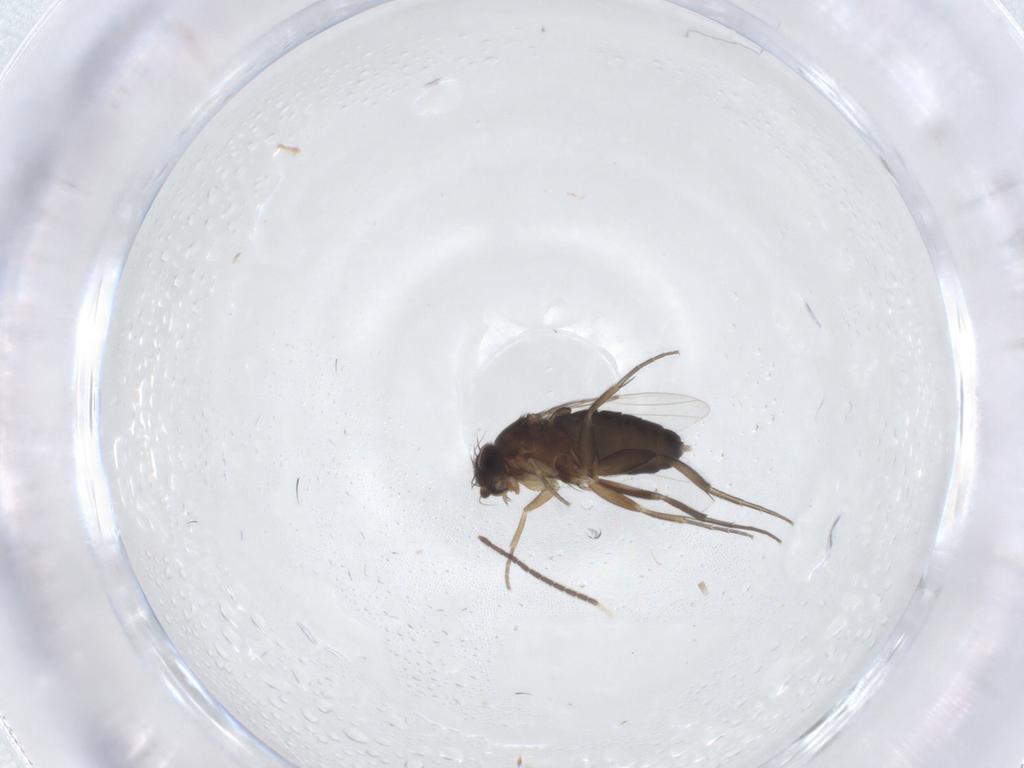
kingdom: Animalia
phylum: Arthropoda
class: Insecta
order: Diptera
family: Phoridae
